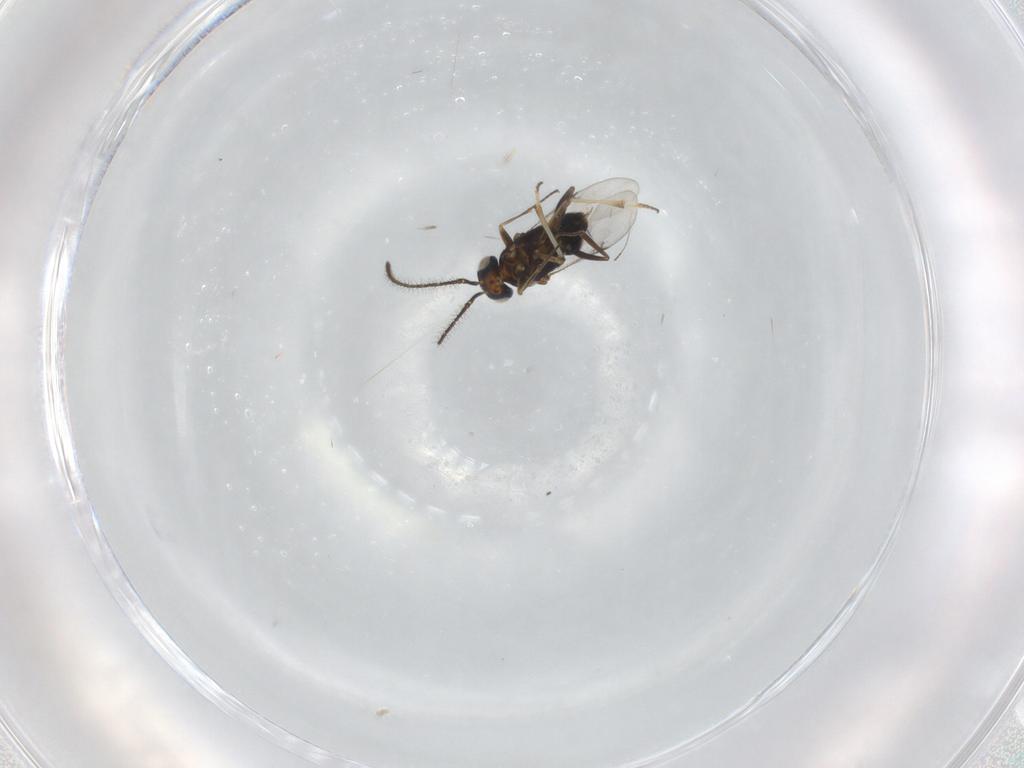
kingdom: Animalia
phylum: Arthropoda
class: Insecta
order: Hymenoptera
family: Encyrtidae
